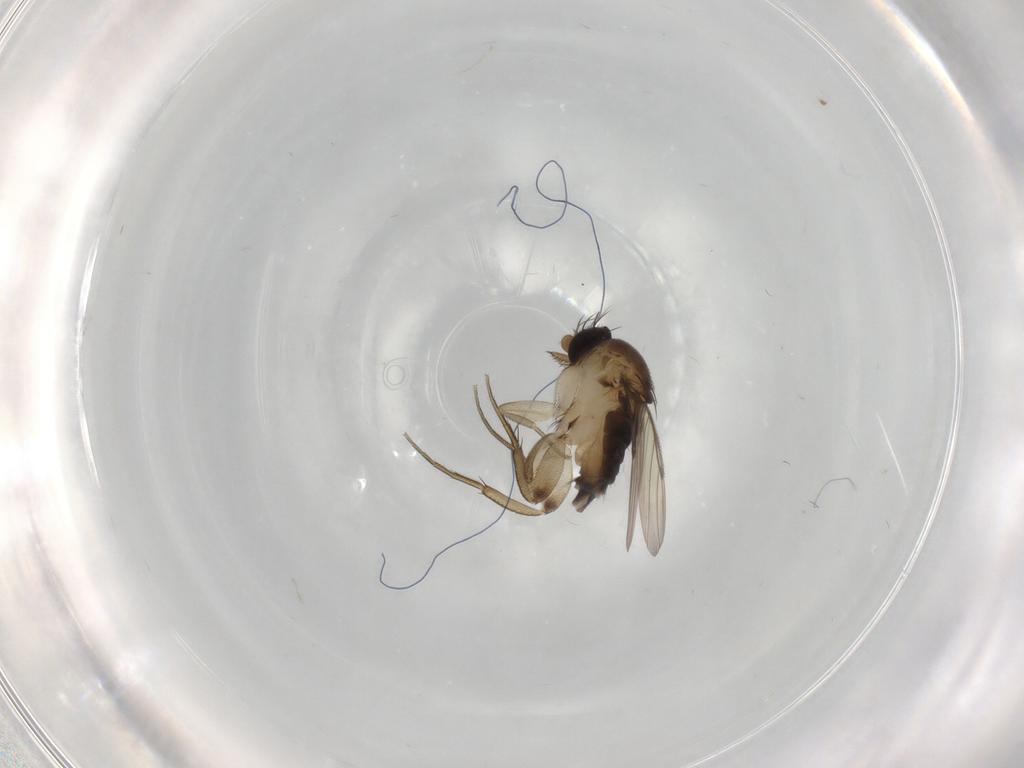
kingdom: Animalia
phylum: Arthropoda
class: Insecta
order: Diptera
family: Phoridae
